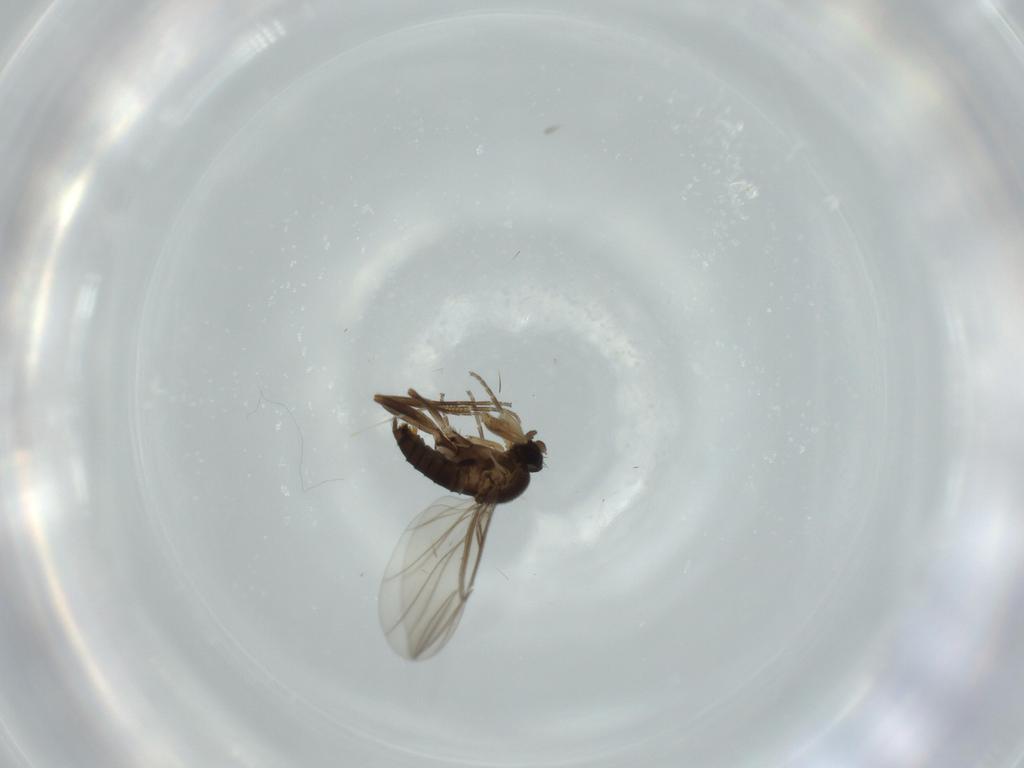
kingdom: Animalia
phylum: Arthropoda
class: Insecta
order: Diptera
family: Phoridae
